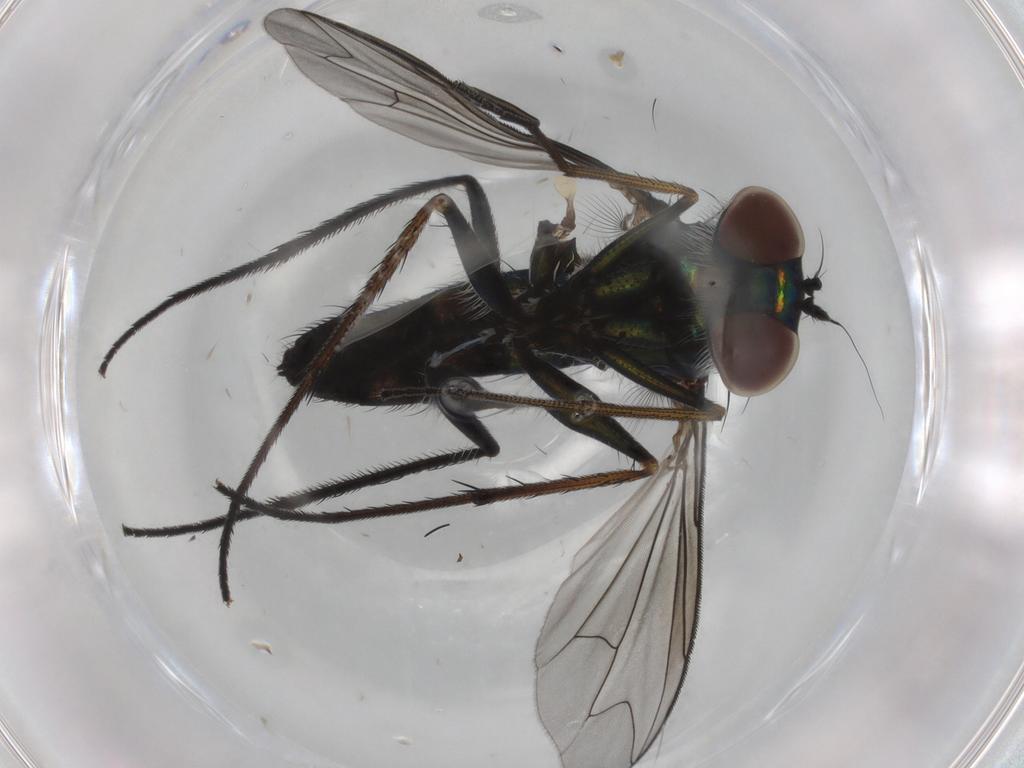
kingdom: Animalia
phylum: Arthropoda
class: Insecta
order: Diptera
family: Dolichopodidae
